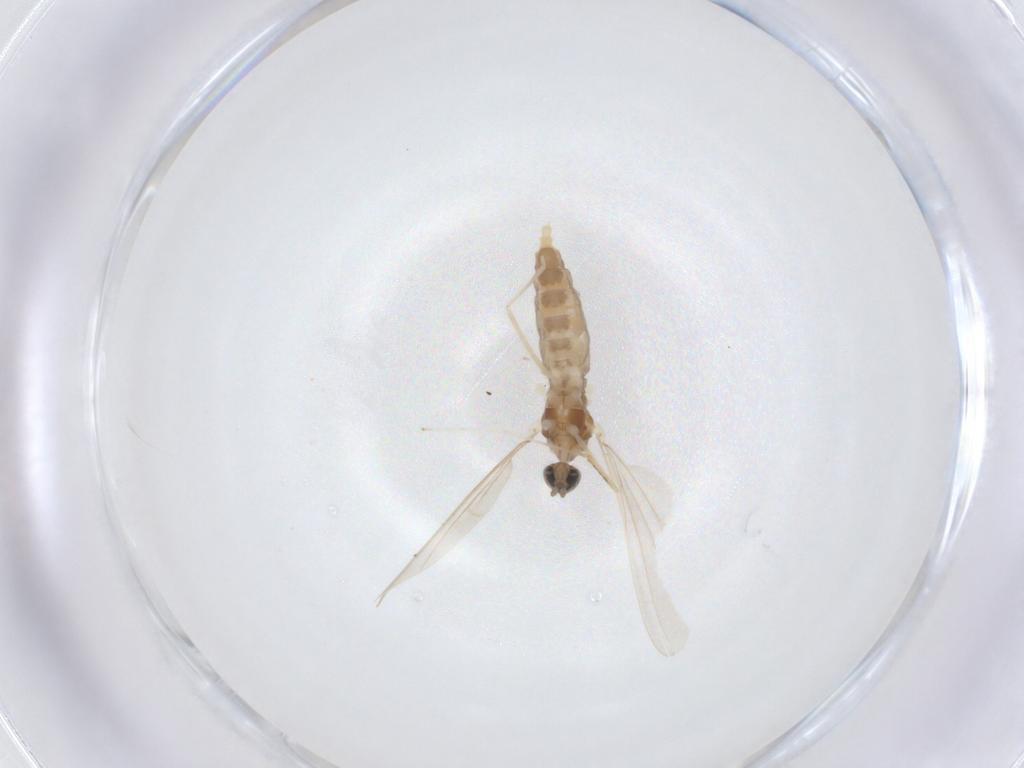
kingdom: Animalia
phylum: Arthropoda
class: Insecta
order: Diptera
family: Cecidomyiidae
